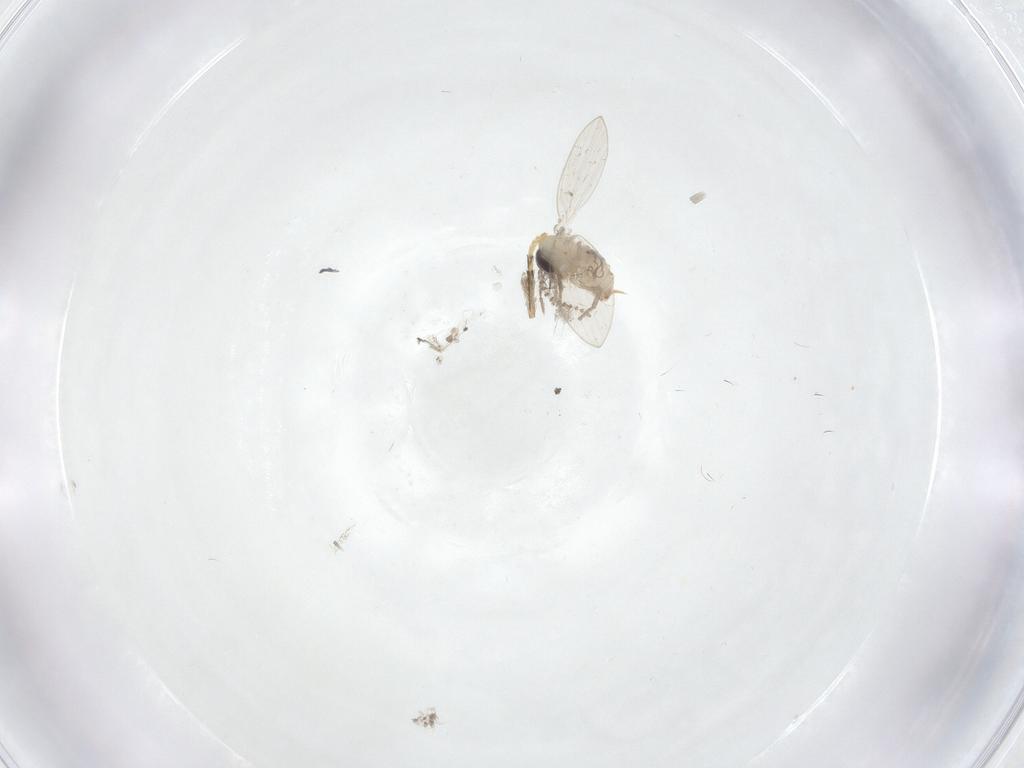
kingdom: Animalia
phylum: Arthropoda
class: Insecta
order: Diptera
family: Psychodidae
